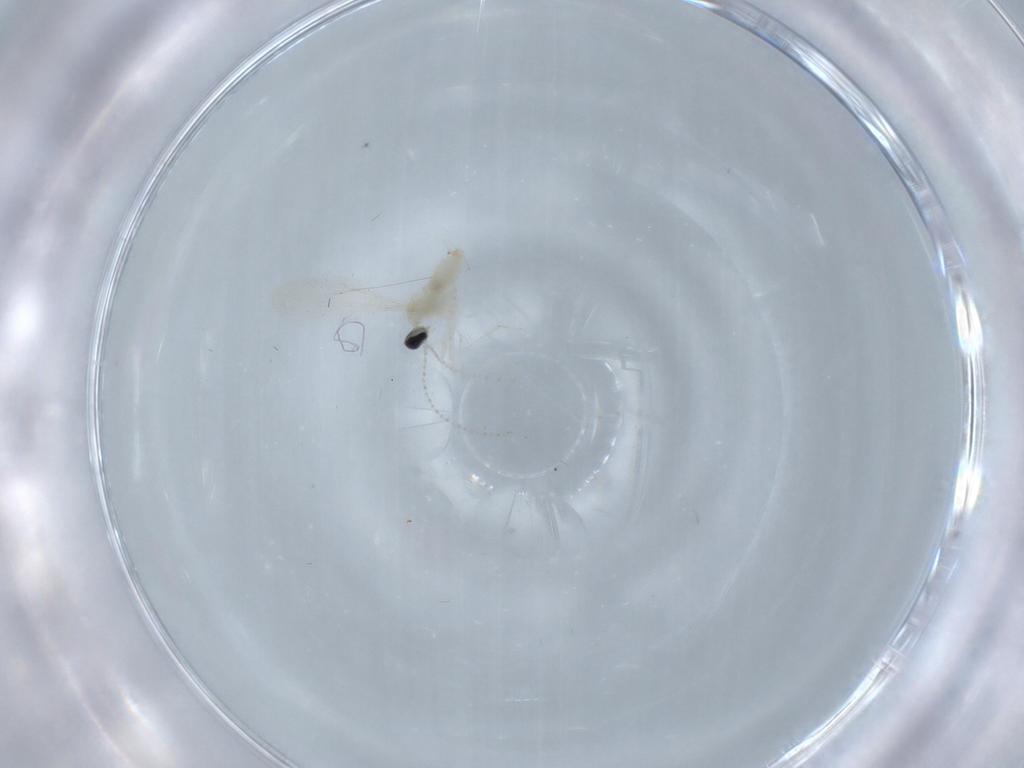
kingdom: Animalia
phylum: Arthropoda
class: Insecta
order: Diptera
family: Cecidomyiidae
